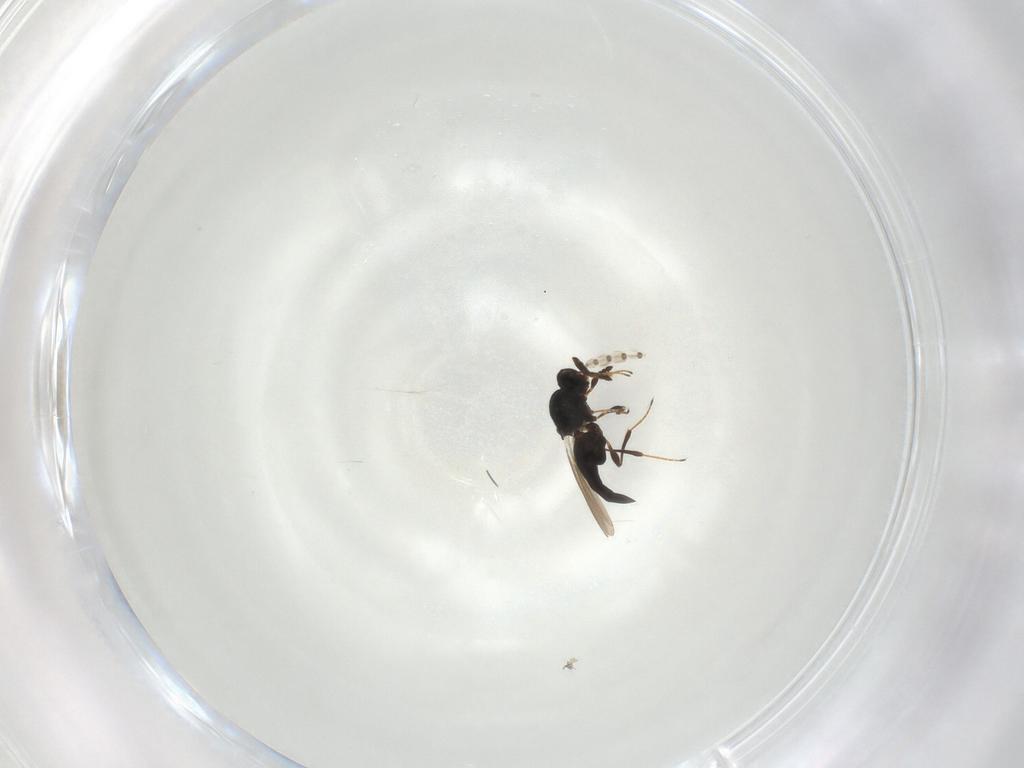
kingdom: Animalia
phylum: Arthropoda
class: Insecta
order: Hymenoptera
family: Platygastridae
